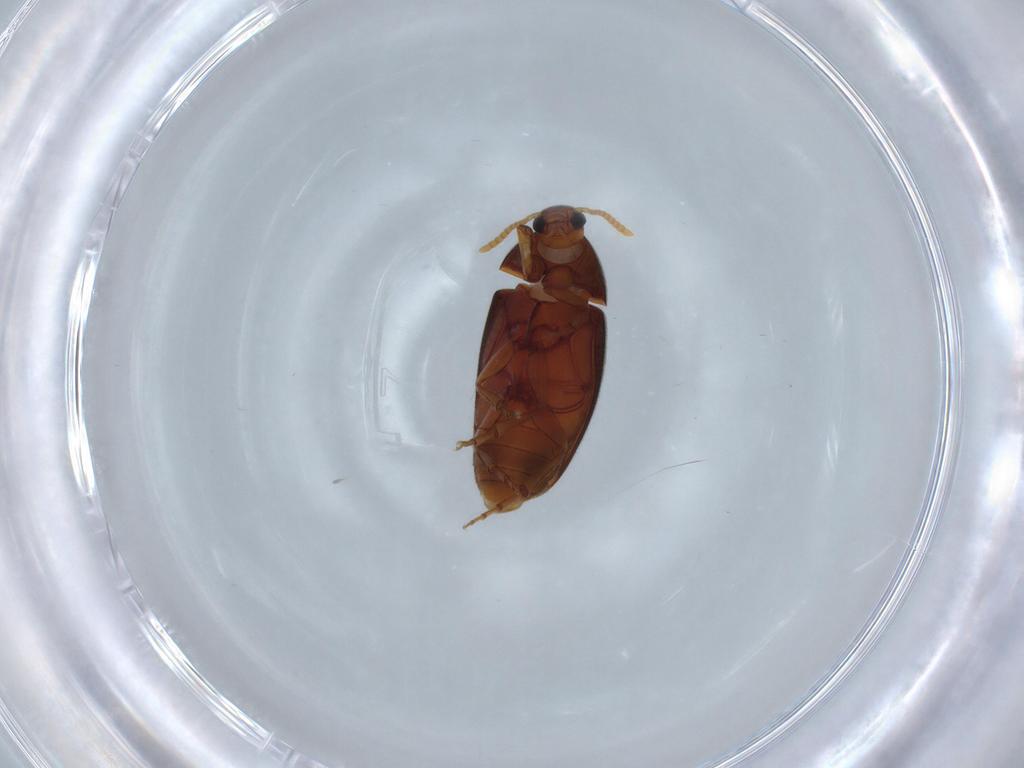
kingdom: Animalia
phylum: Arthropoda
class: Insecta
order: Coleoptera
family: Scraptiidae
